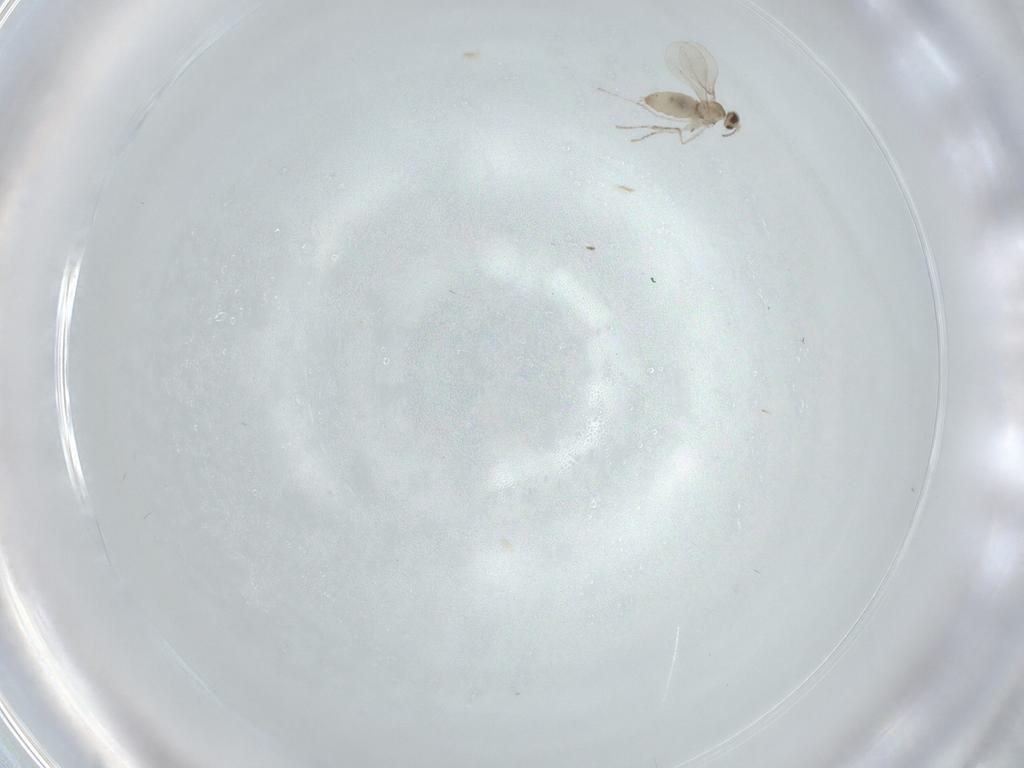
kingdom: Animalia
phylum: Arthropoda
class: Insecta
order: Diptera
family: Cecidomyiidae
